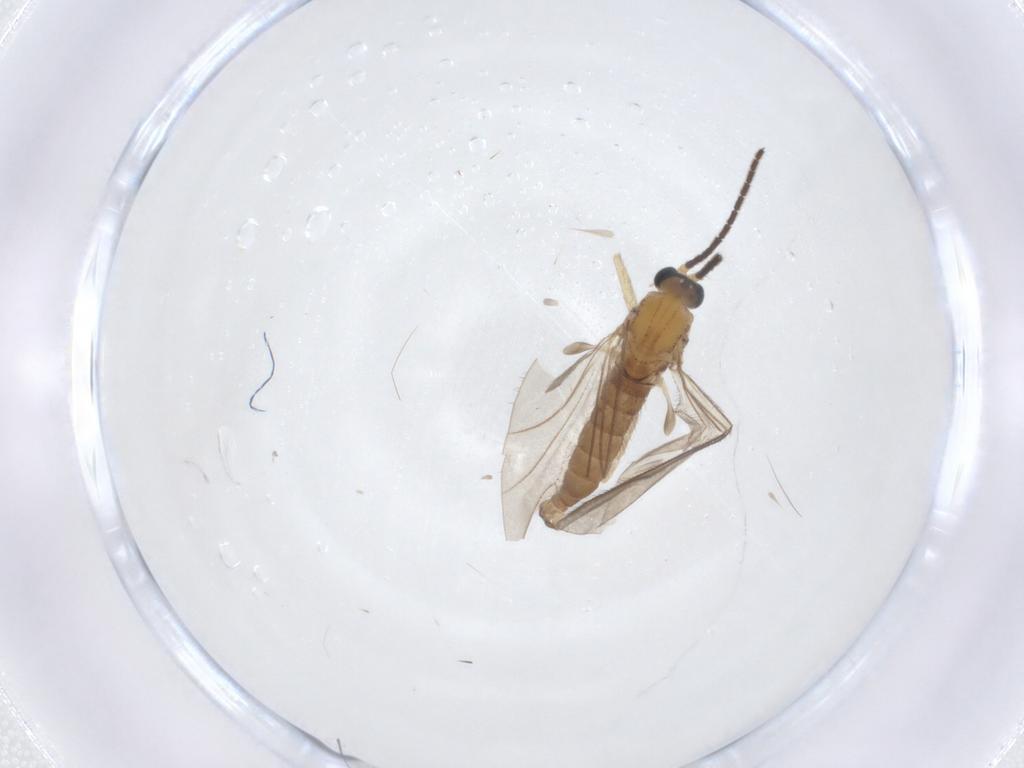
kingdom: Animalia
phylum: Arthropoda
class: Insecta
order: Diptera
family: Sciaridae
